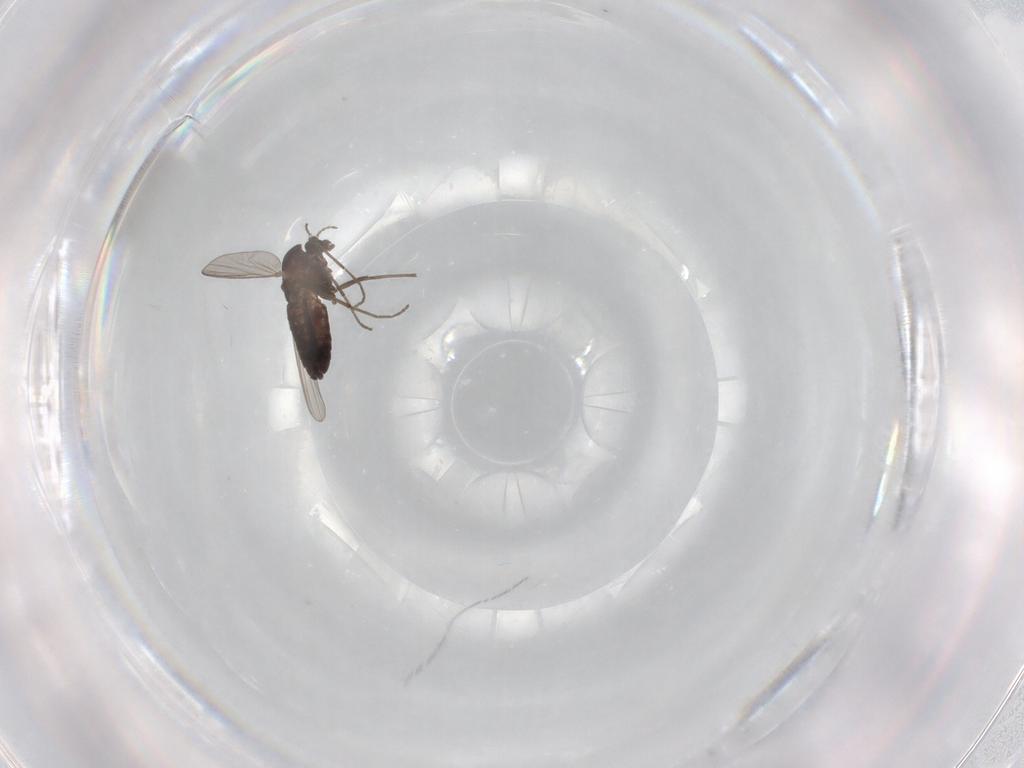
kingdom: Animalia
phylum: Arthropoda
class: Insecta
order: Diptera
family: Chironomidae
